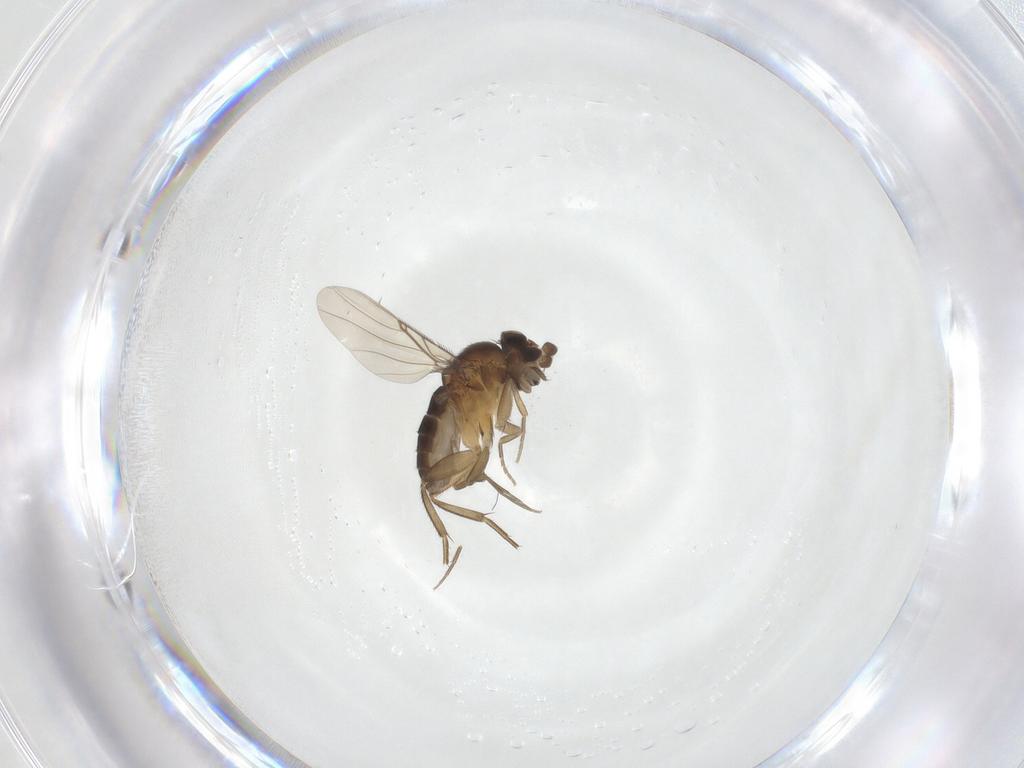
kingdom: Animalia
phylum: Arthropoda
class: Insecta
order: Diptera
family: Phoridae
